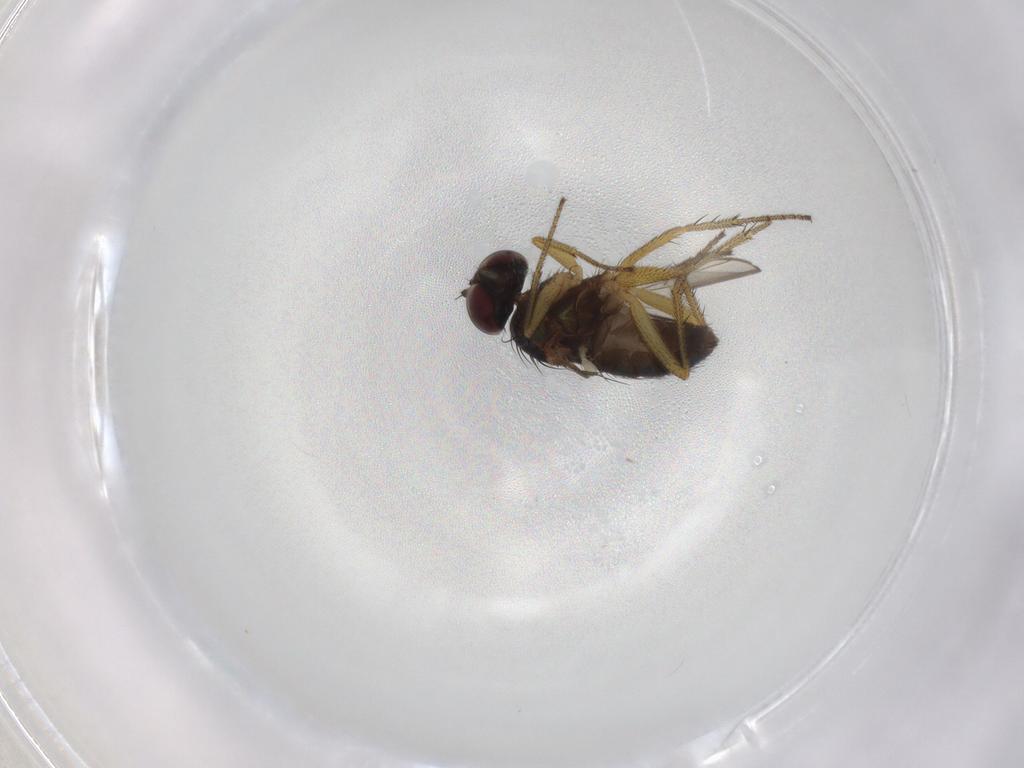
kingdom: Animalia
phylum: Arthropoda
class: Insecta
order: Diptera
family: Dolichopodidae
